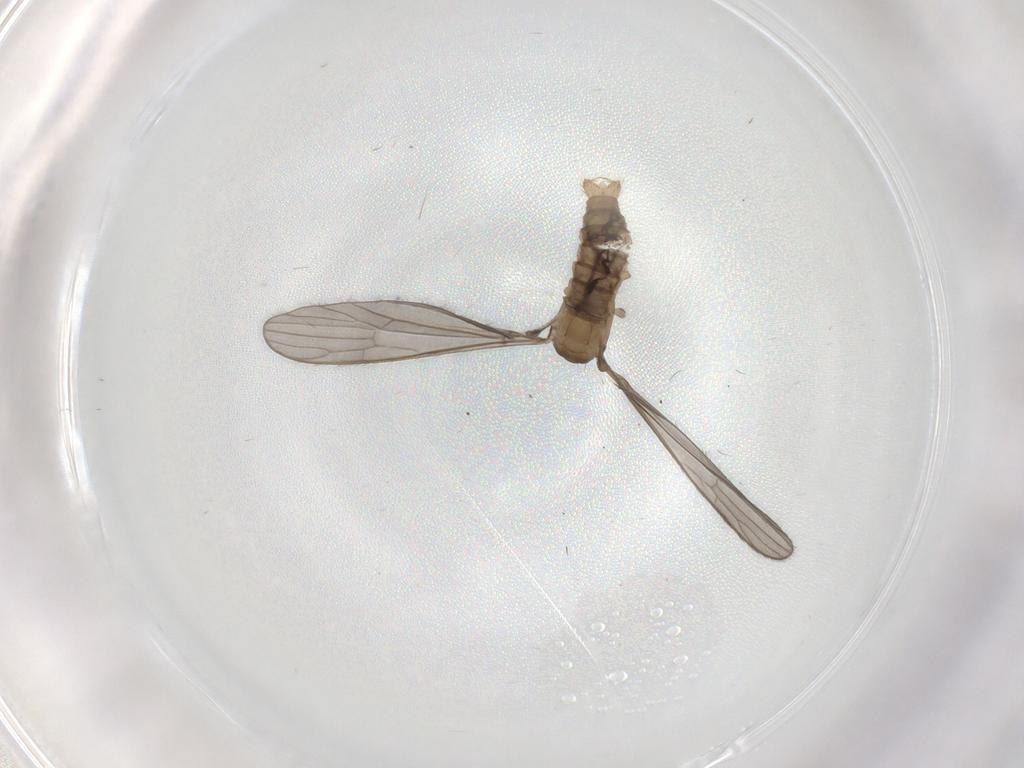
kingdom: Animalia
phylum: Arthropoda
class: Insecta
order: Diptera
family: Limoniidae
